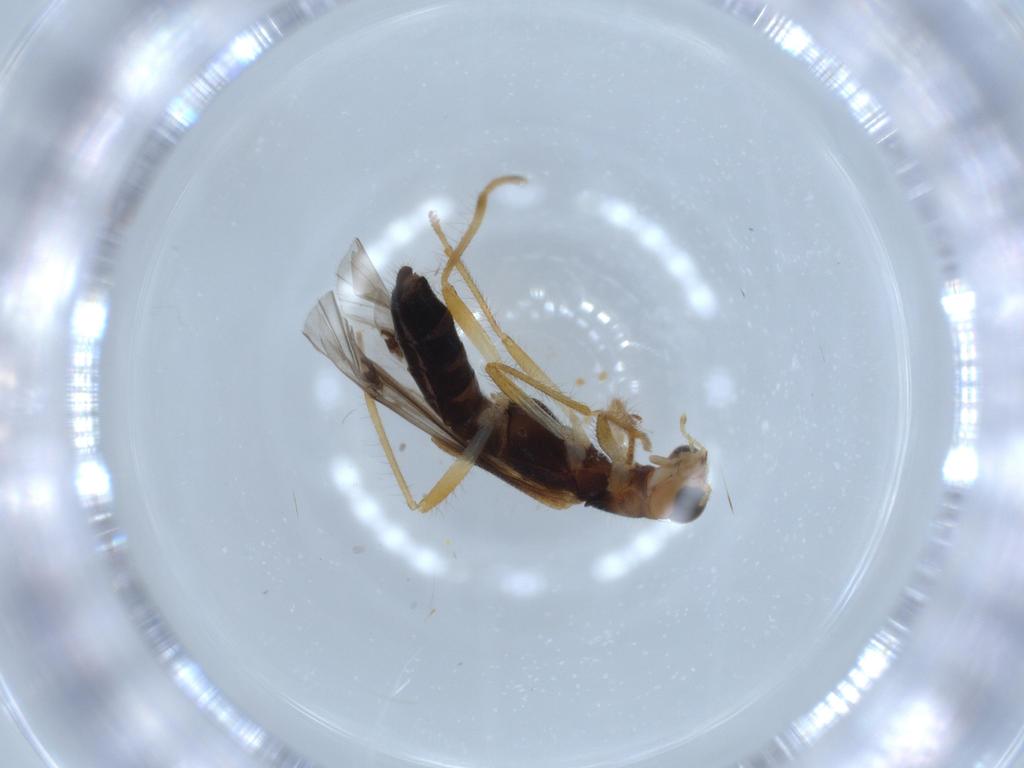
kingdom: Animalia
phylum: Arthropoda
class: Insecta
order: Coleoptera
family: Cleridae
